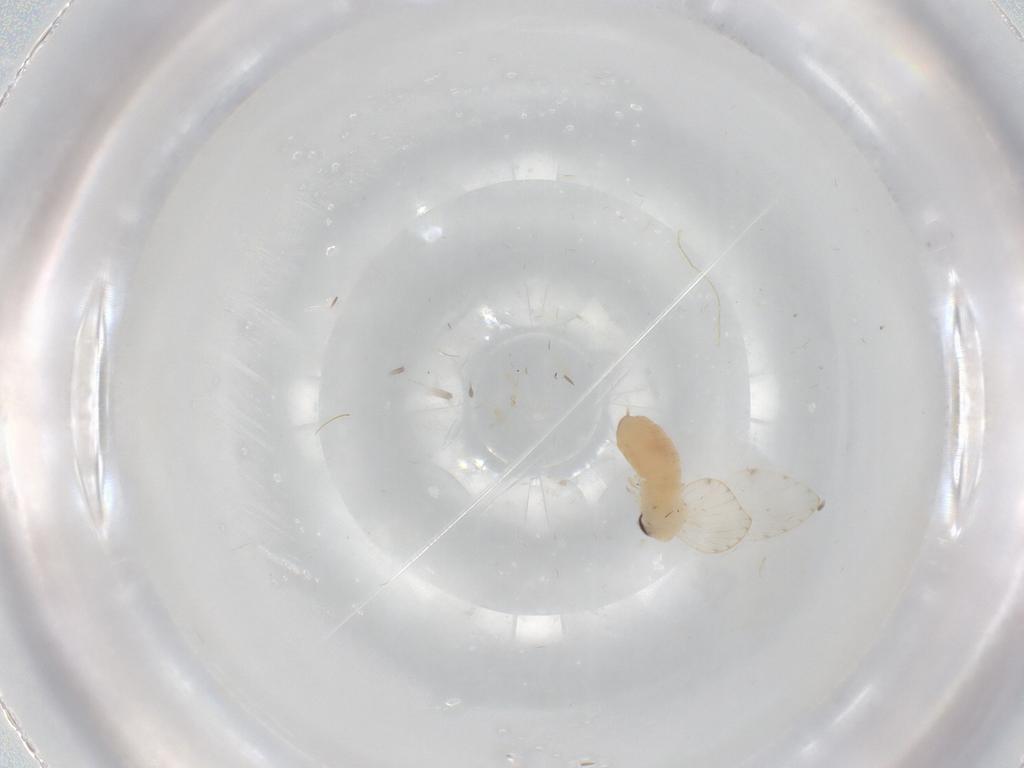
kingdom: Animalia
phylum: Arthropoda
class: Insecta
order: Diptera
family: Psychodidae
